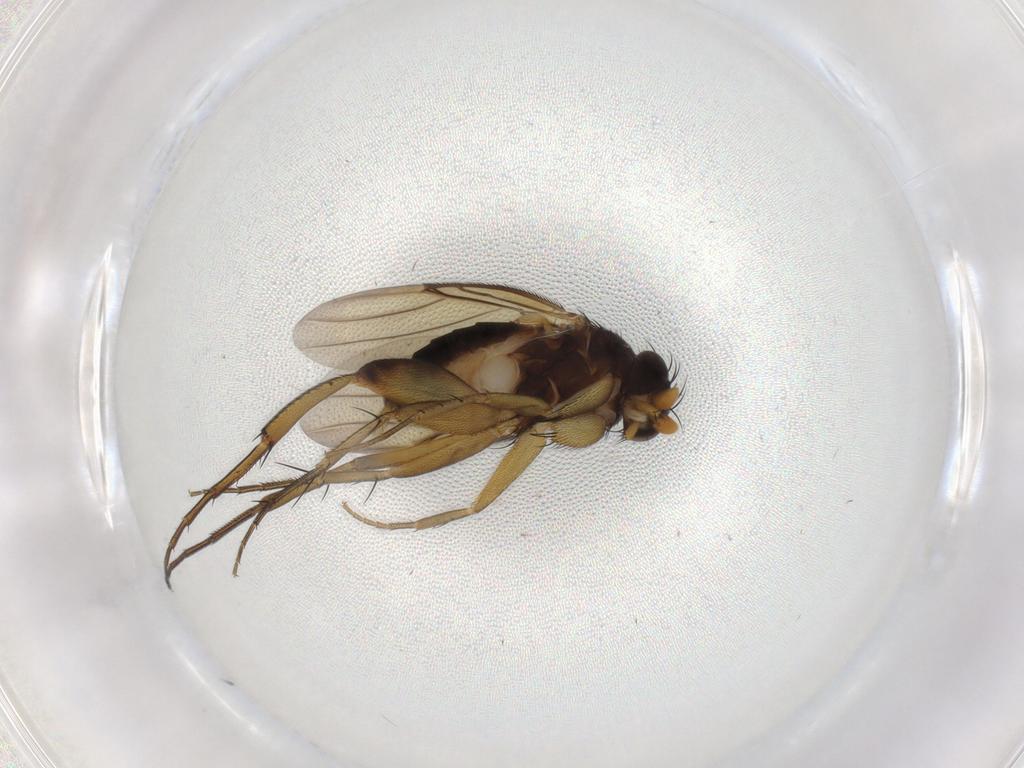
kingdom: Animalia
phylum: Arthropoda
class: Insecta
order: Diptera
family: Phoridae
